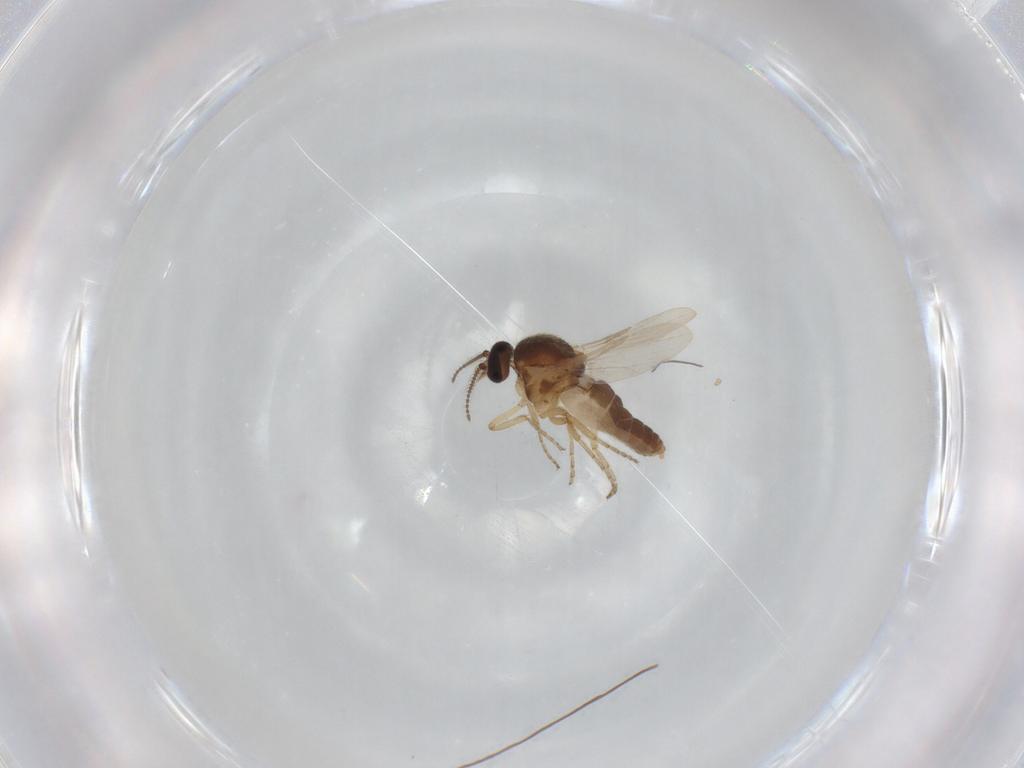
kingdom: Animalia
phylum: Arthropoda
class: Insecta
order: Diptera
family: Ceratopogonidae
